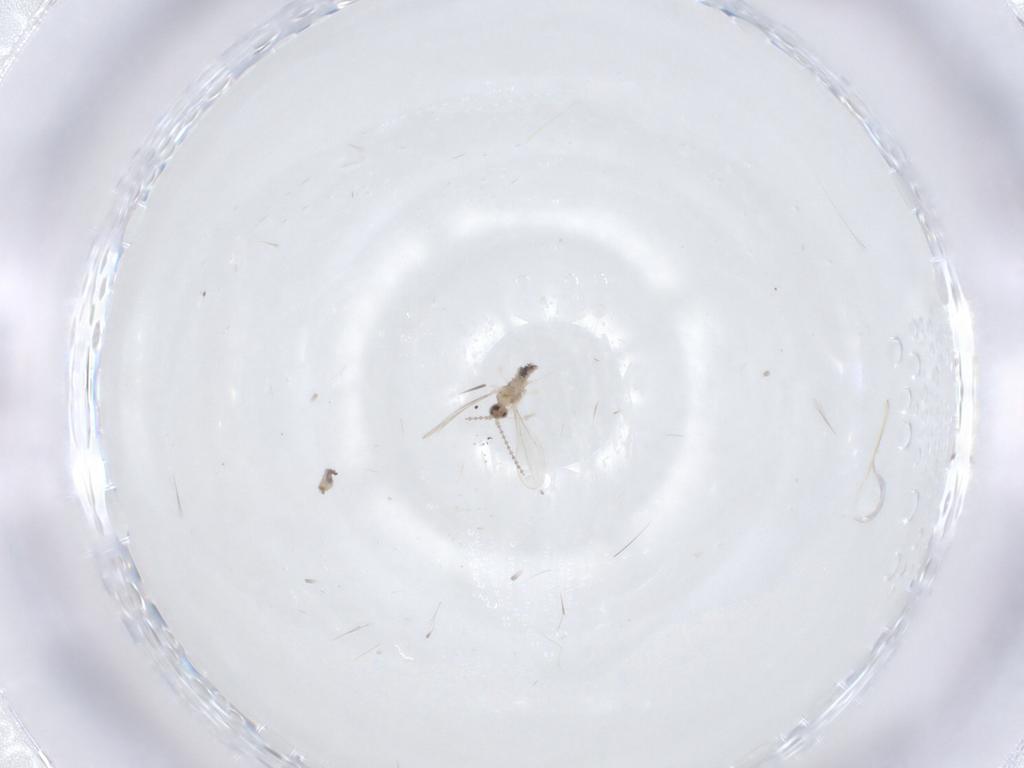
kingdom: Animalia
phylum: Arthropoda
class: Insecta
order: Diptera
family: Cecidomyiidae
